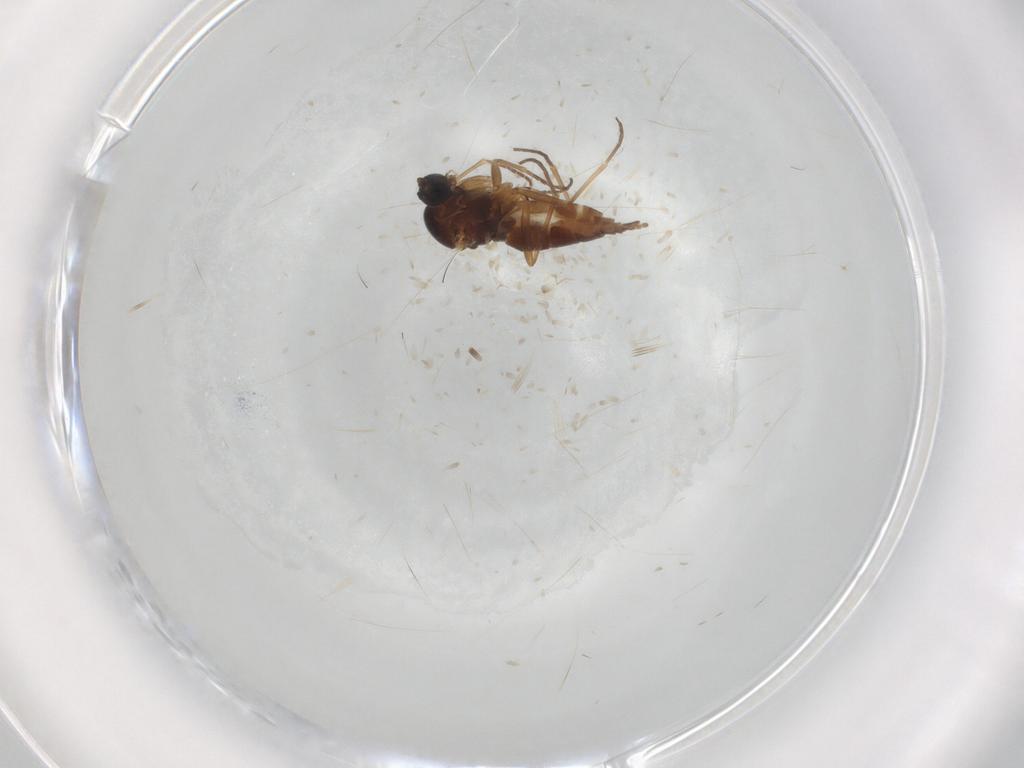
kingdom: Animalia
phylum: Arthropoda
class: Insecta
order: Diptera
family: Sciaridae
